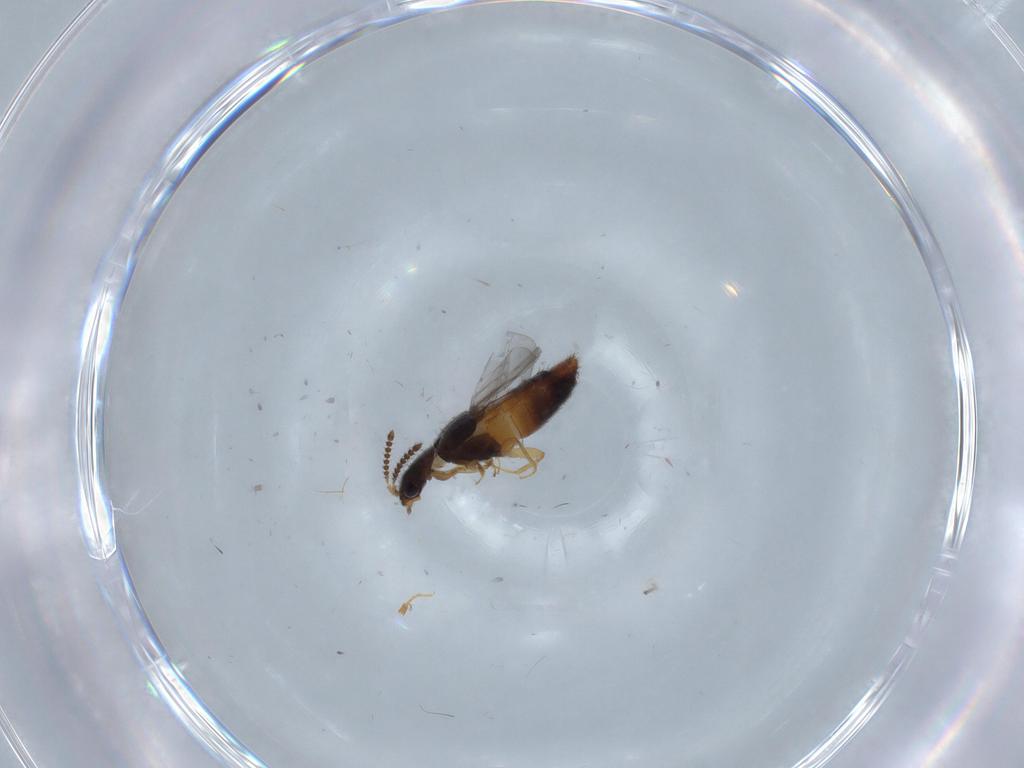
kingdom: Animalia
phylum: Arthropoda
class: Insecta
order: Coleoptera
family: Staphylinidae
